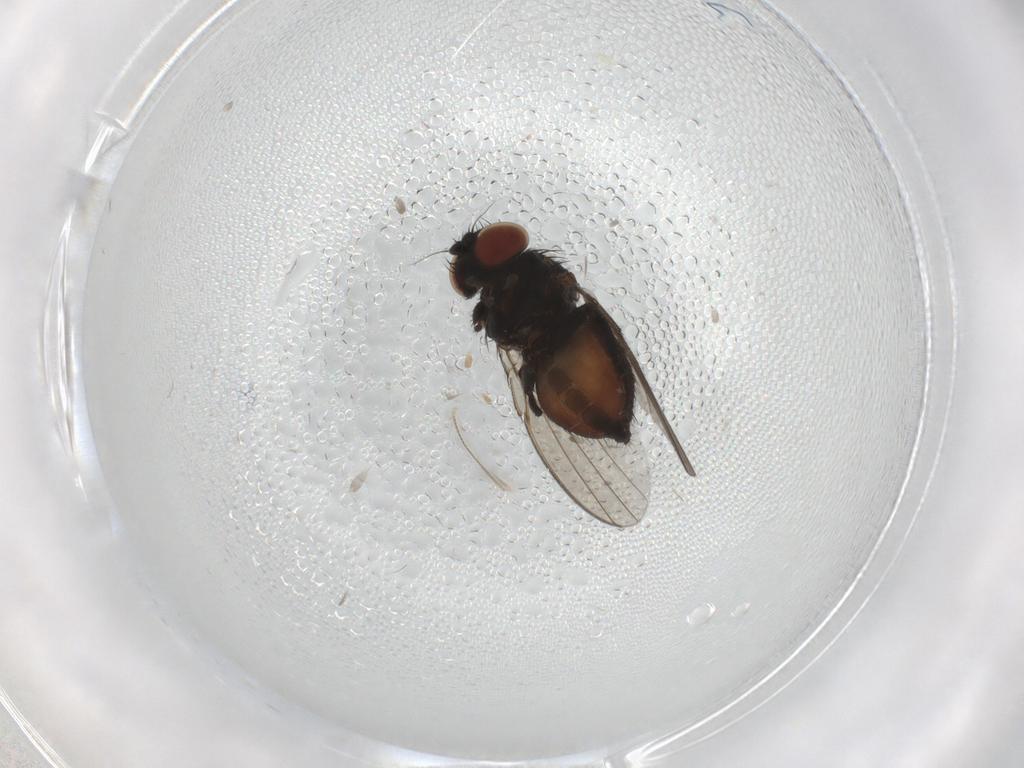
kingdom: Animalia
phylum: Arthropoda
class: Insecta
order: Diptera
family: Milichiidae
